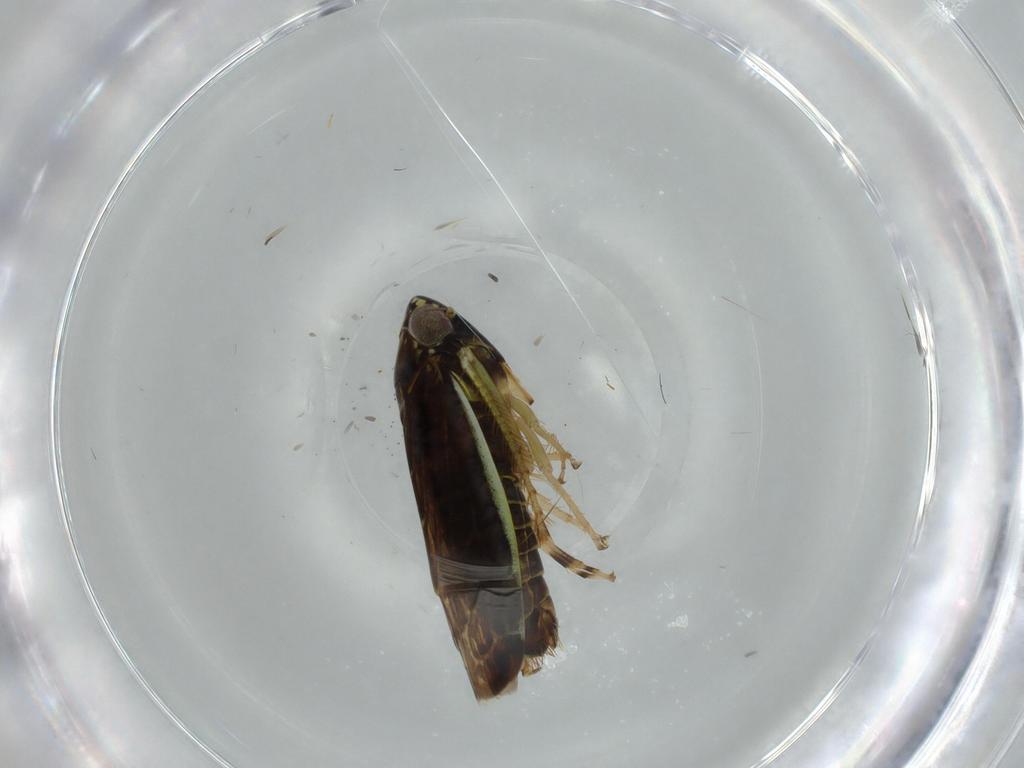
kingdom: Animalia
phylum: Arthropoda
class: Insecta
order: Hemiptera
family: Cicadellidae
